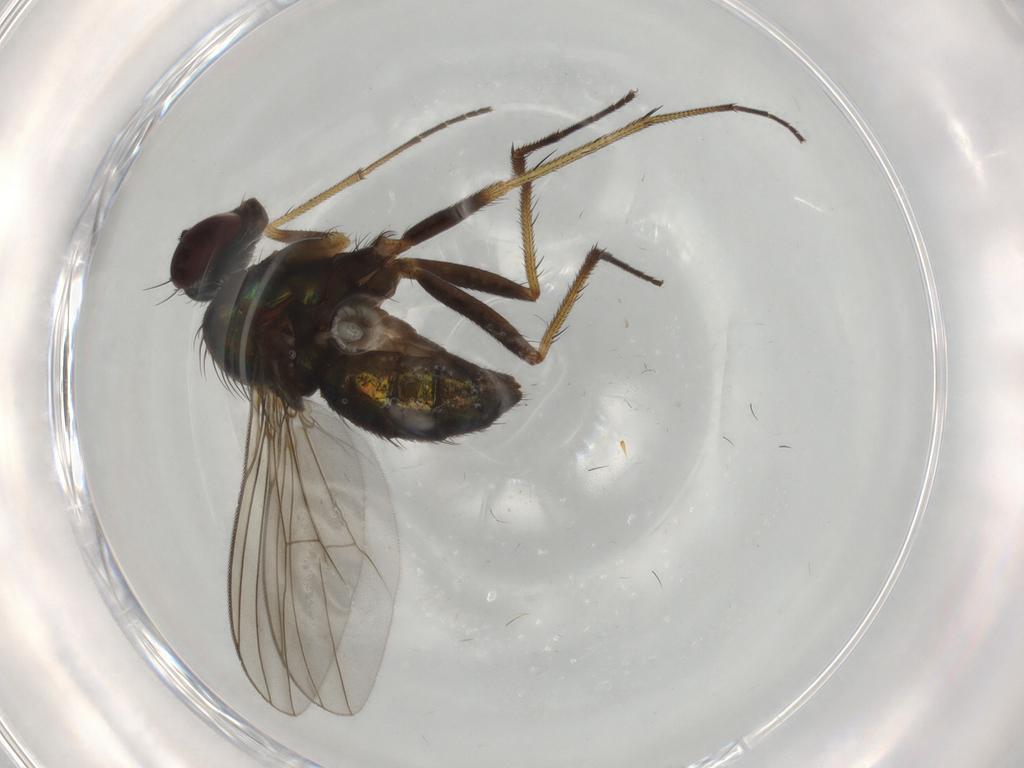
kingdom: Animalia
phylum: Arthropoda
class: Insecta
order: Diptera
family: Dolichopodidae
